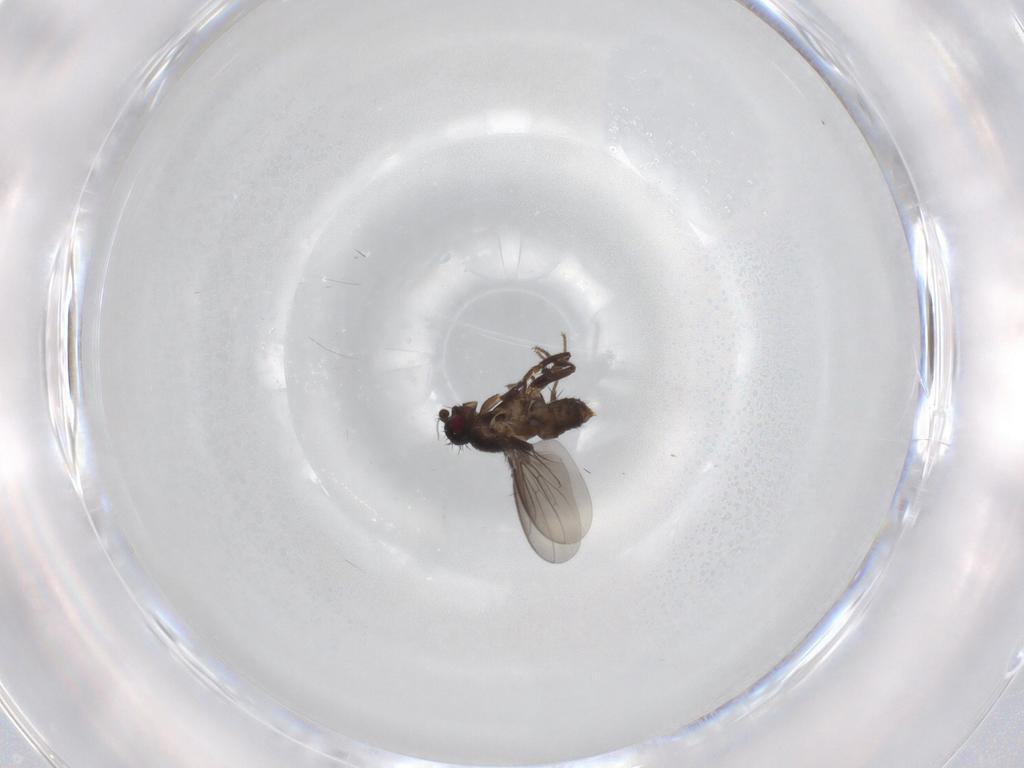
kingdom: Animalia
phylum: Arthropoda
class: Insecta
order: Diptera
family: Sphaeroceridae
